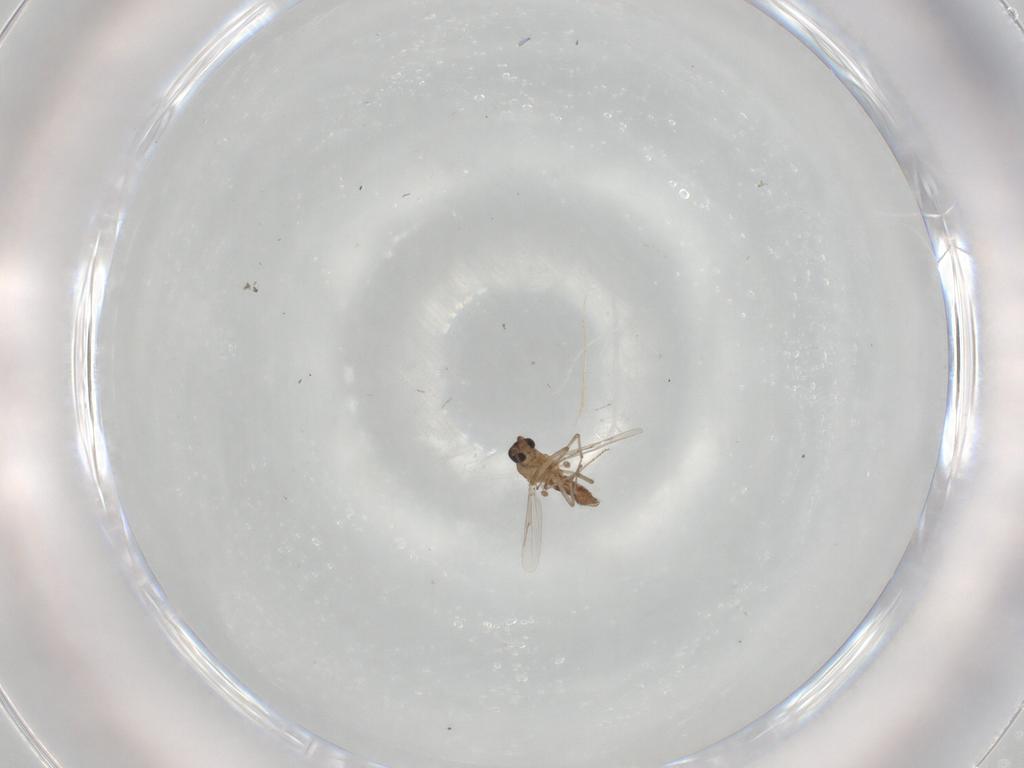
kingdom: Animalia
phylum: Arthropoda
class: Insecta
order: Diptera
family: Ceratopogonidae
